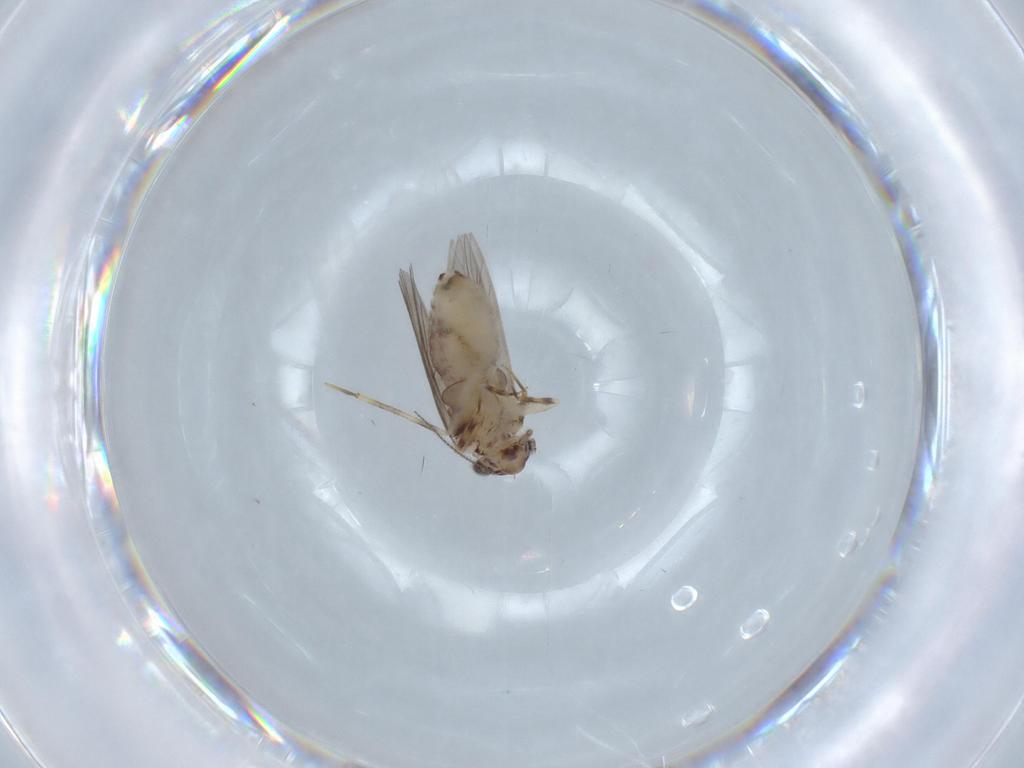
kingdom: Animalia
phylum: Arthropoda
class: Insecta
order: Psocodea
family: Lepidopsocidae
